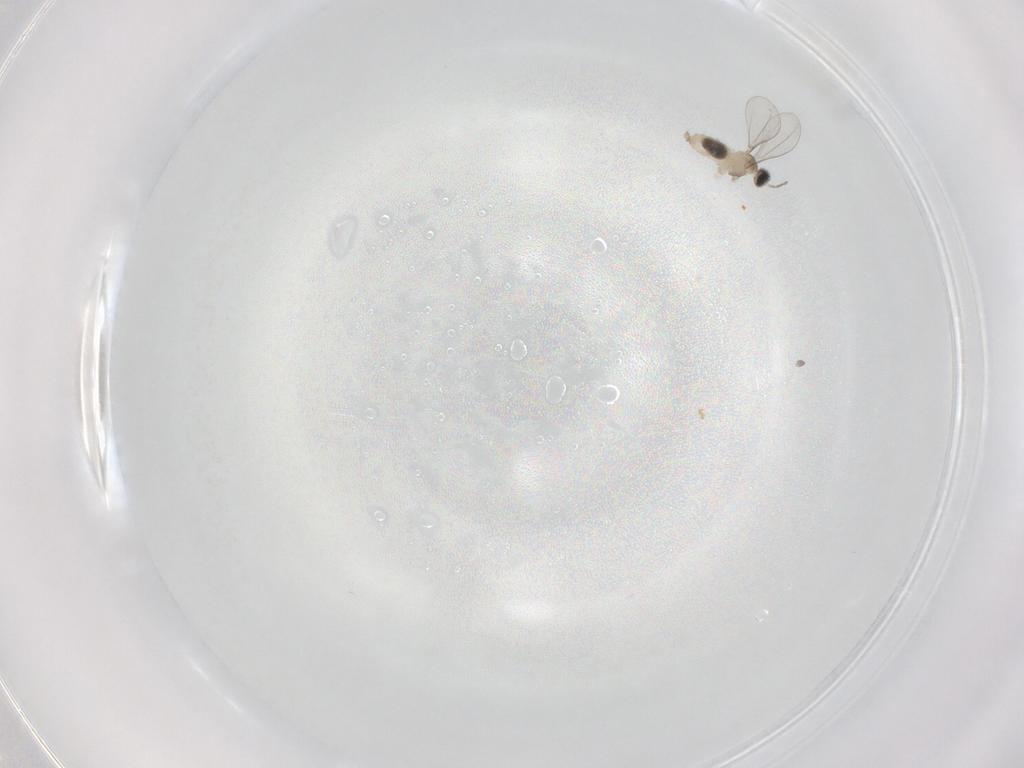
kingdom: Animalia
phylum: Arthropoda
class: Insecta
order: Diptera
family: Cecidomyiidae
